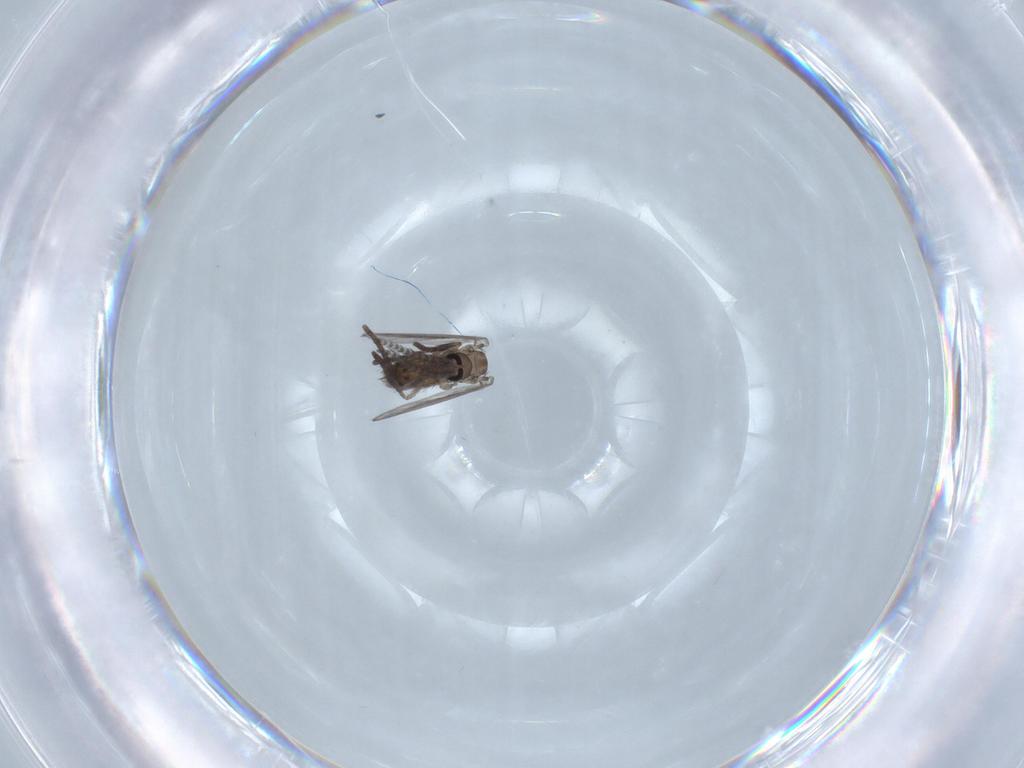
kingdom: Animalia
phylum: Arthropoda
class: Insecta
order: Diptera
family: Psychodidae
